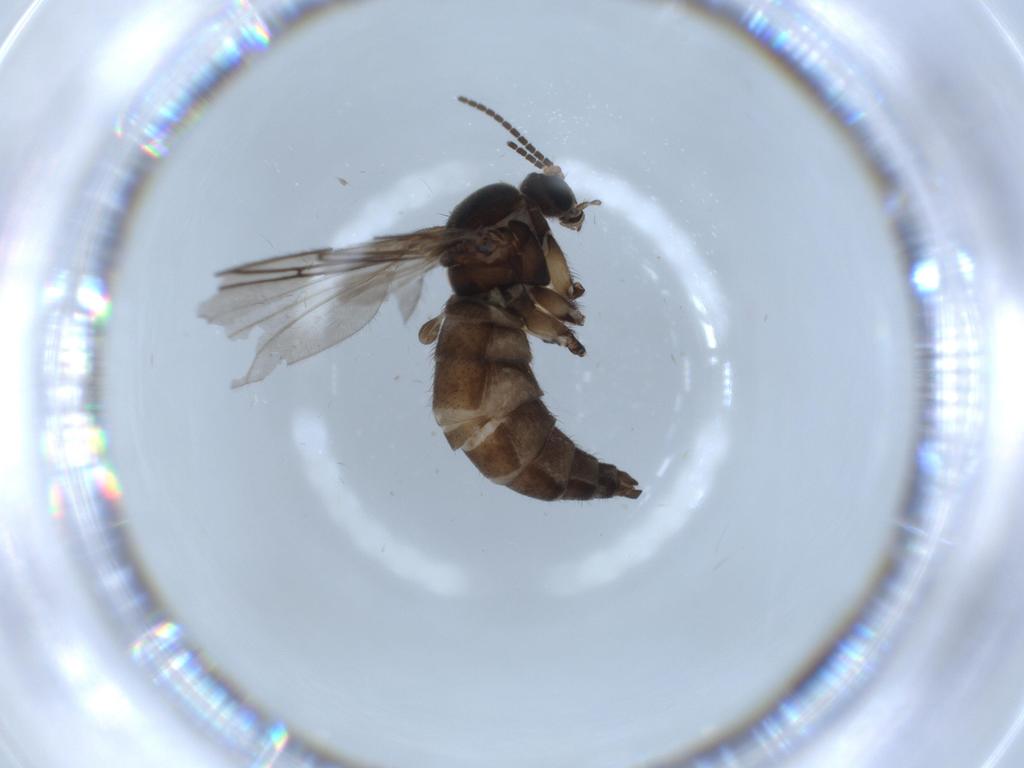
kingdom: Animalia
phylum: Arthropoda
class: Insecta
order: Diptera
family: Sciaridae
